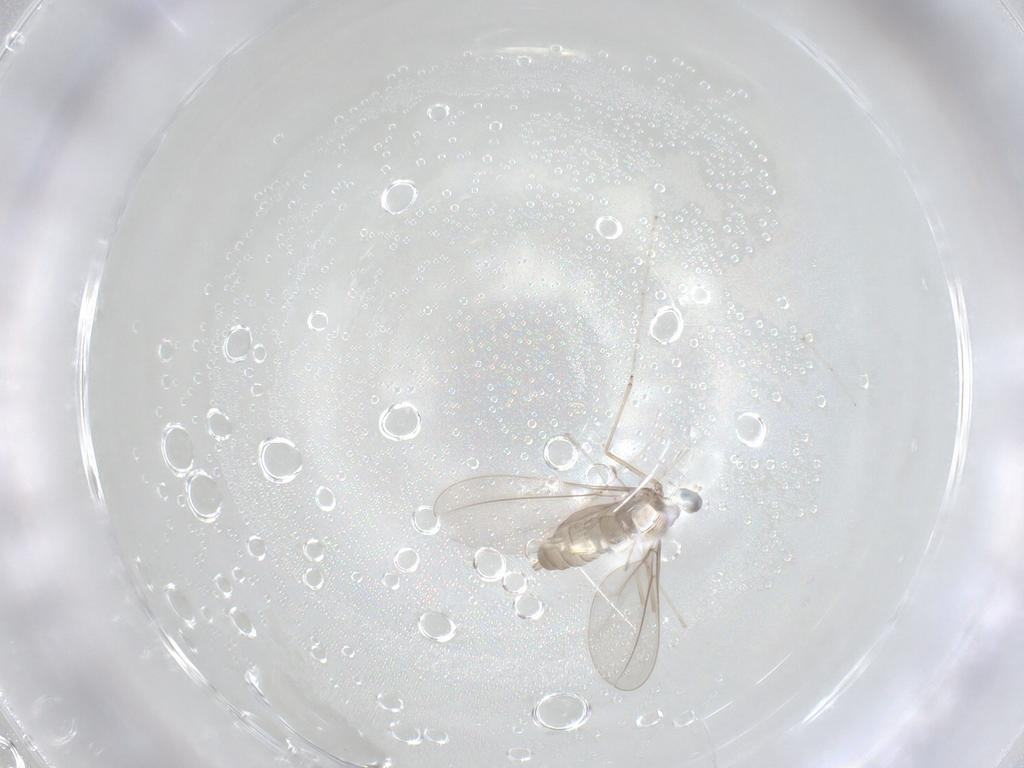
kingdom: Animalia
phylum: Arthropoda
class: Insecta
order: Diptera
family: Cecidomyiidae
